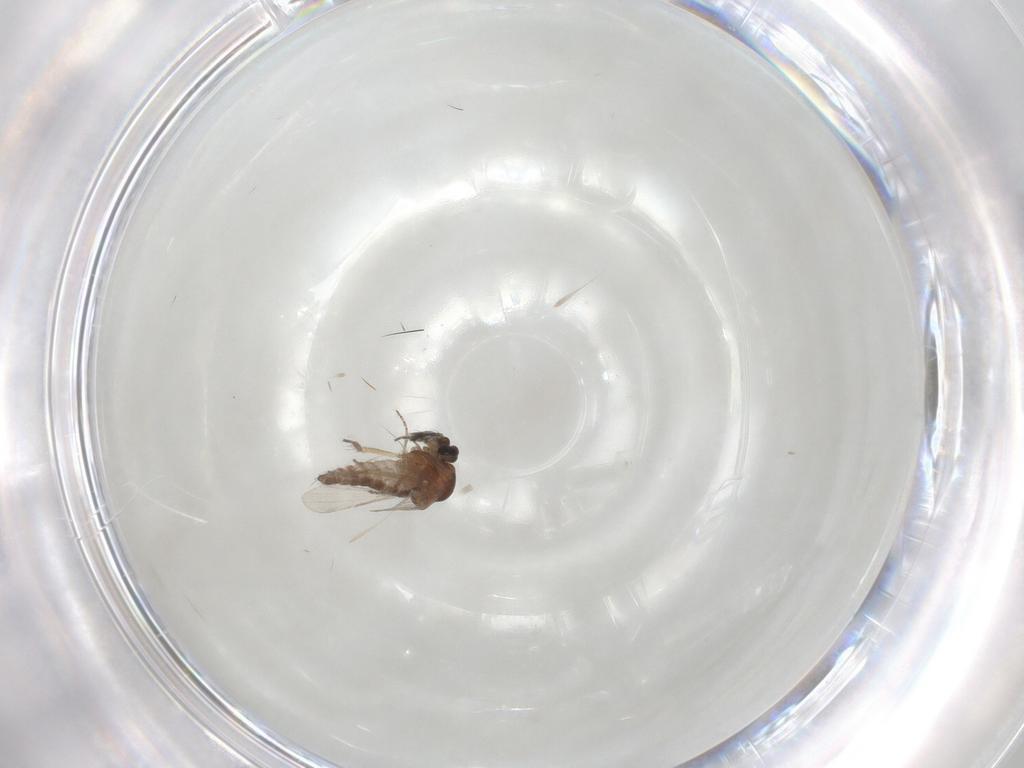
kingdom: Animalia
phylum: Arthropoda
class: Insecta
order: Diptera
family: Ceratopogonidae
